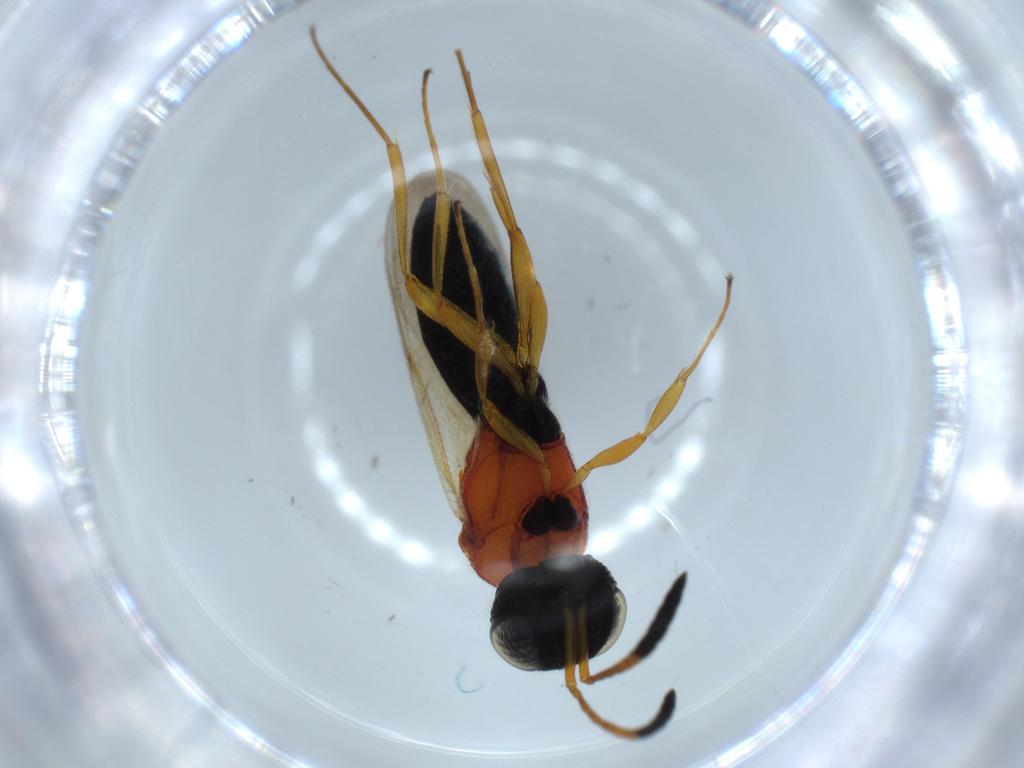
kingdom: Animalia
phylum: Arthropoda
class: Insecta
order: Hymenoptera
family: Scelionidae
